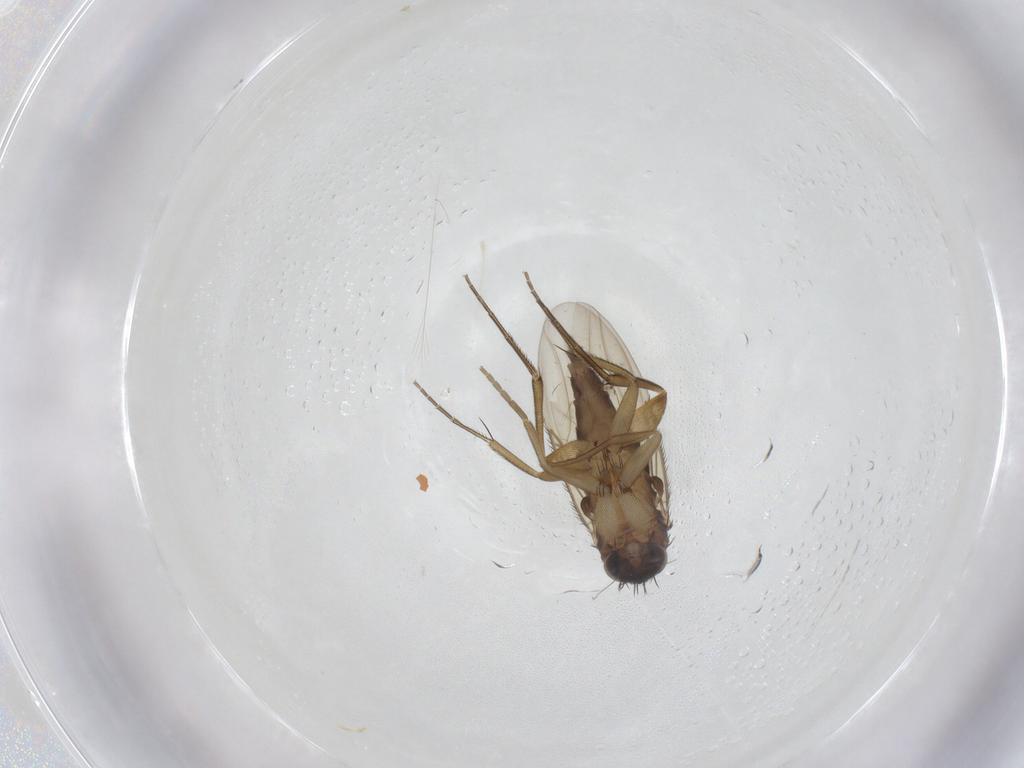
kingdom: Animalia
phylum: Arthropoda
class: Insecta
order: Diptera
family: Phoridae
